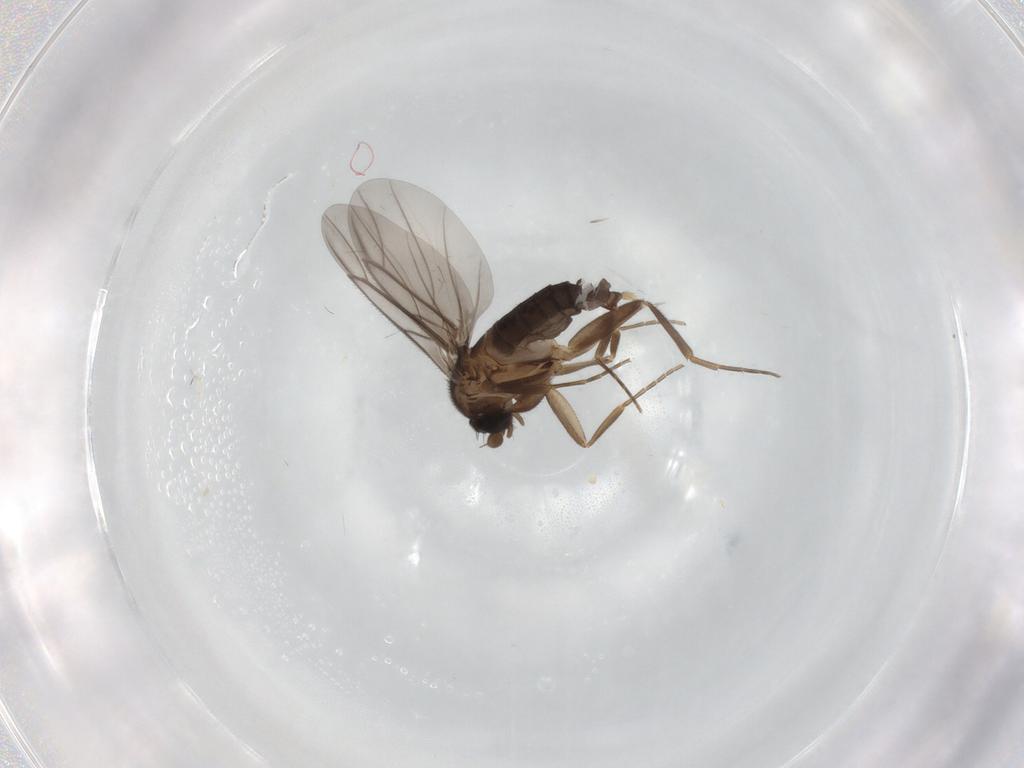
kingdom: Animalia
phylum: Arthropoda
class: Insecta
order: Diptera
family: Phoridae
